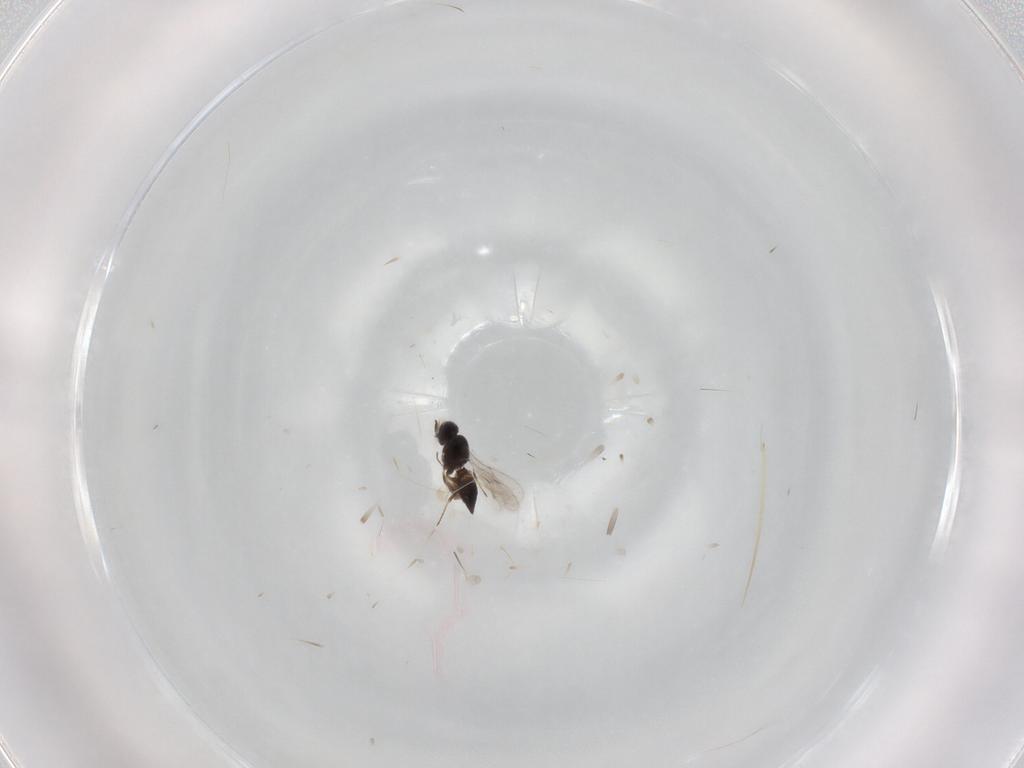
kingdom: Animalia
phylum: Arthropoda
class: Insecta
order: Hymenoptera
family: Scelionidae
